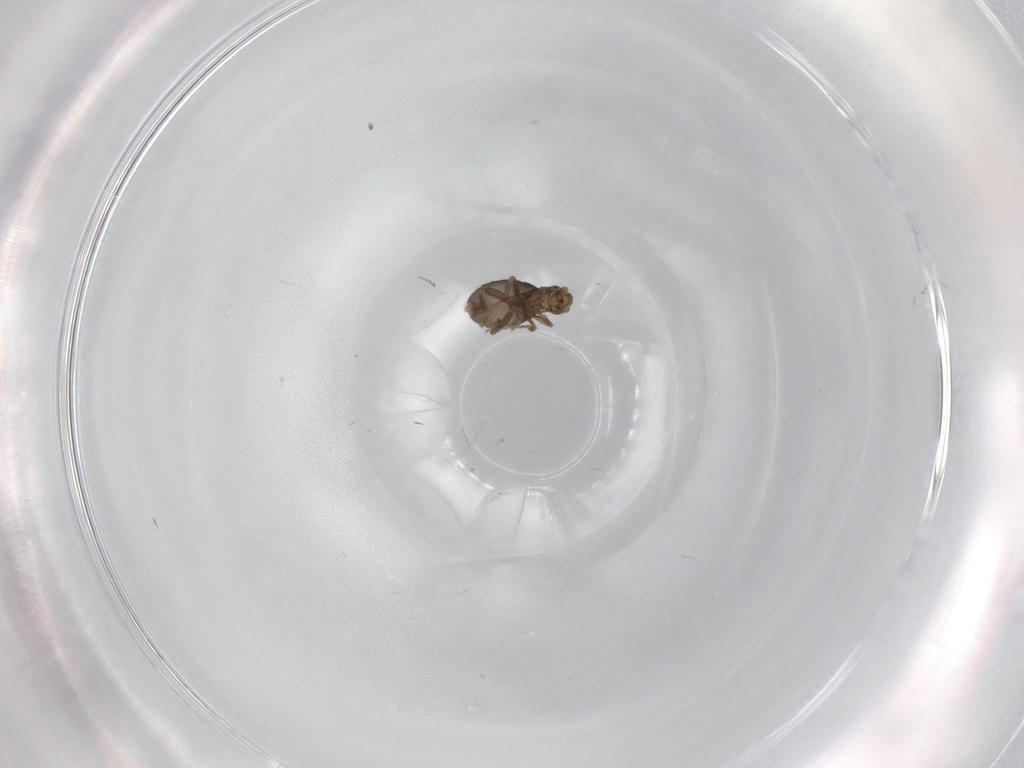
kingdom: Animalia
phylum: Arthropoda
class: Insecta
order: Diptera
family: Phoridae
